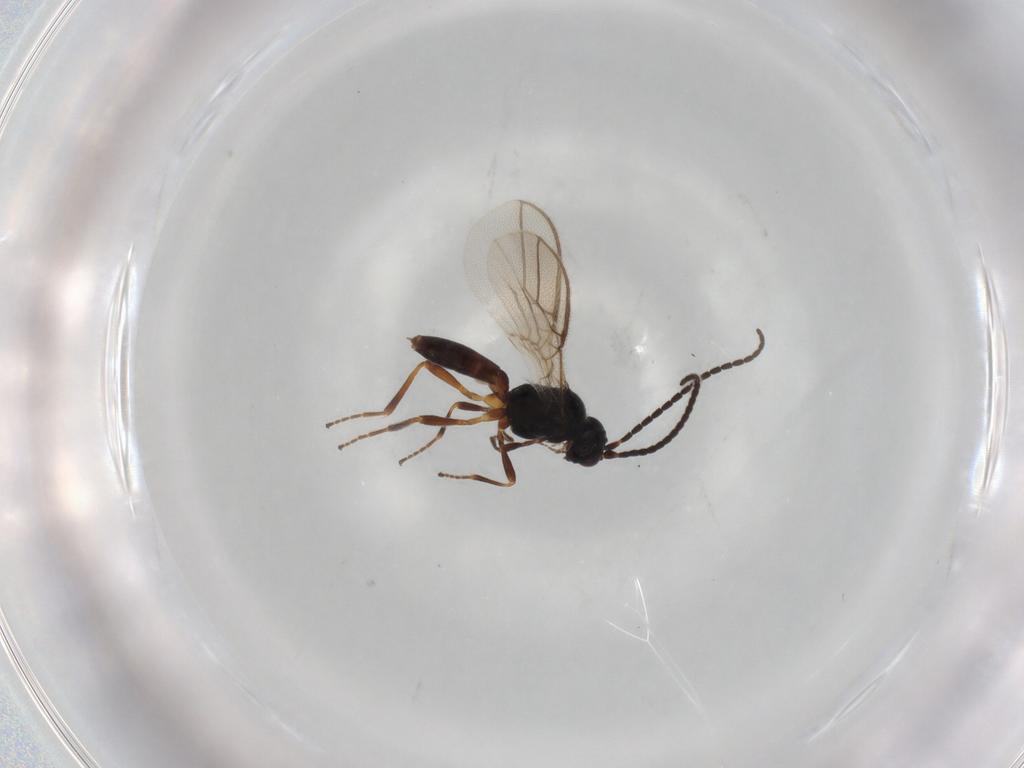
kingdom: Animalia
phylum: Arthropoda
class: Insecta
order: Hymenoptera
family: Braconidae
